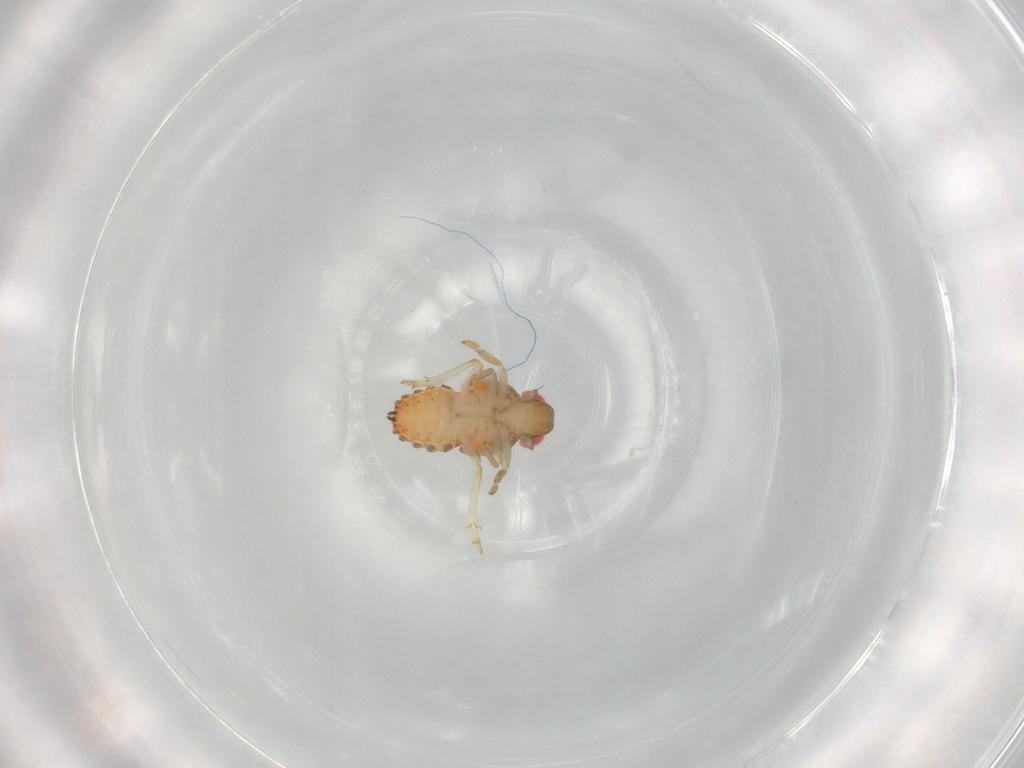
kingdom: Animalia
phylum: Arthropoda
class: Insecta
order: Hemiptera
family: Issidae
